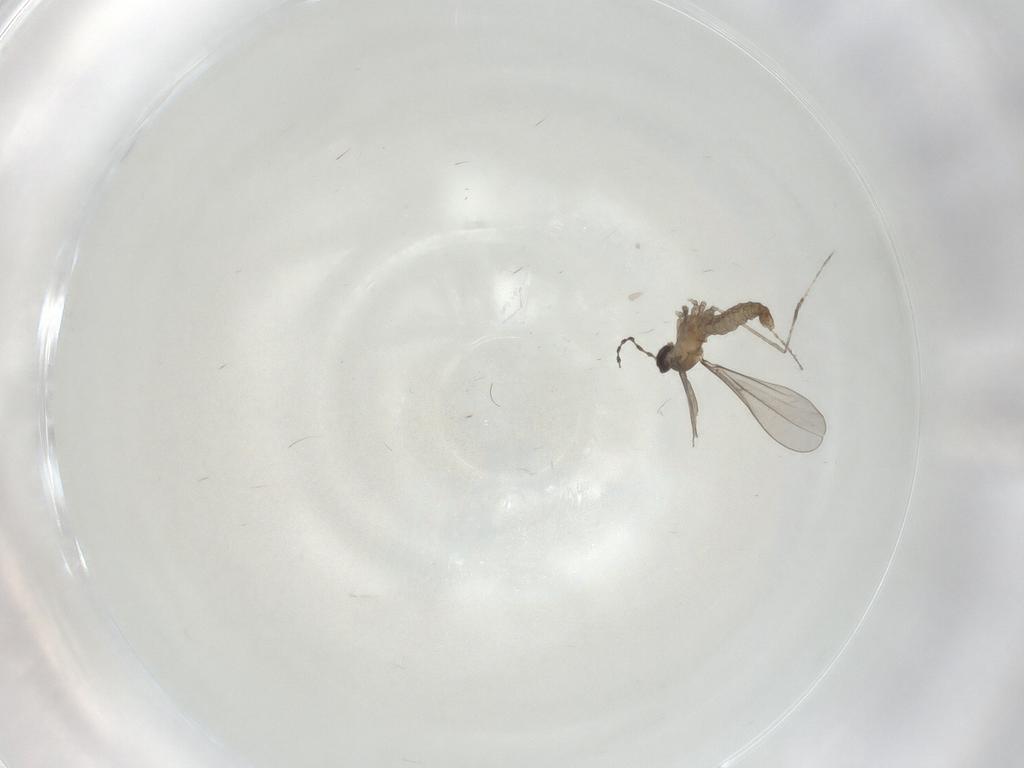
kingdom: Animalia
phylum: Arthropoda
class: Insecta
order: Diptera
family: Cecidomyiidae
